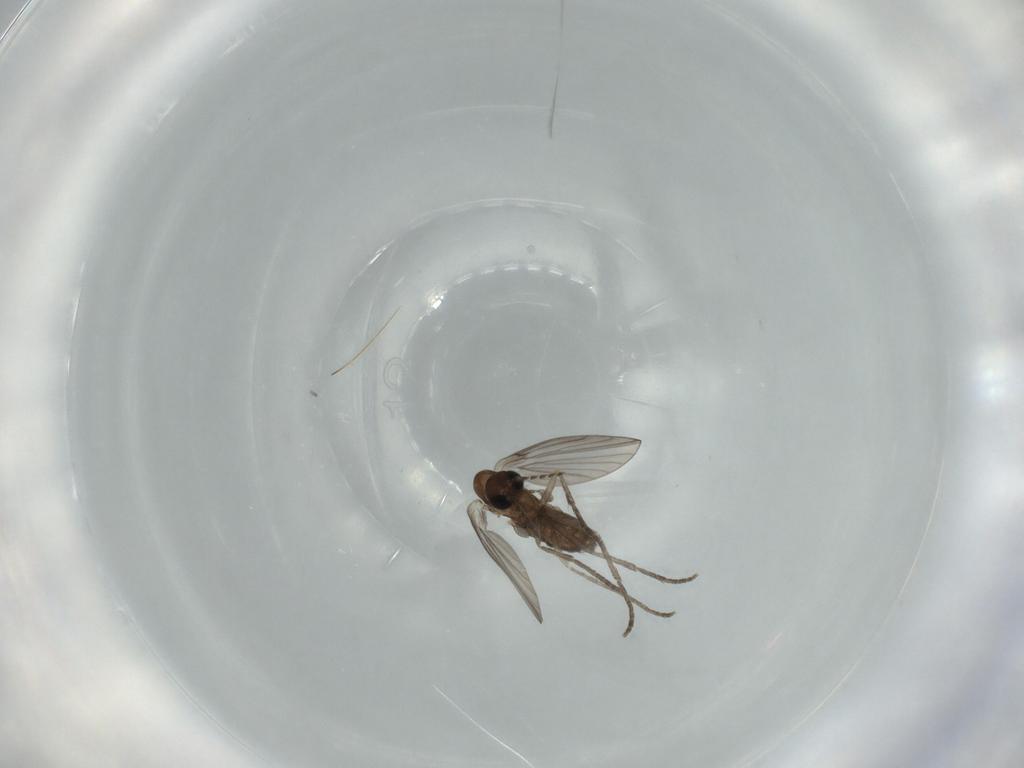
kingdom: Animalia
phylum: Arthropoda
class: Insecta
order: Diptera
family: Psychodidae
